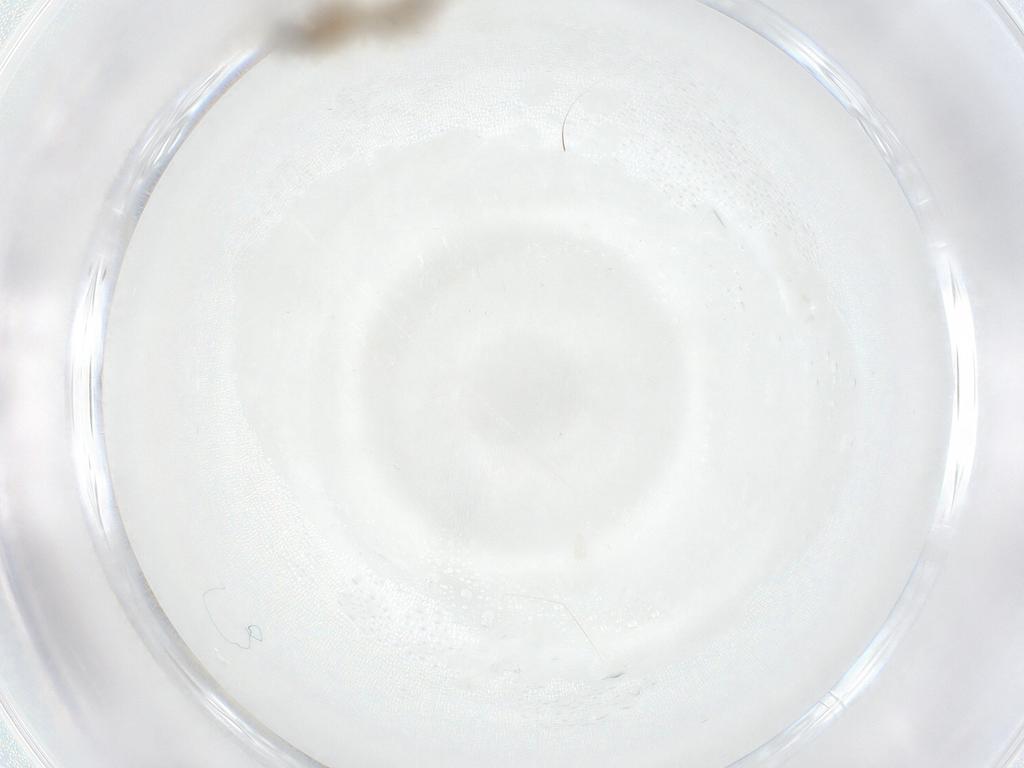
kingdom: Animalia
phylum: Arthropoda
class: Insecta
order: Diptera
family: Cecidomyiidae
